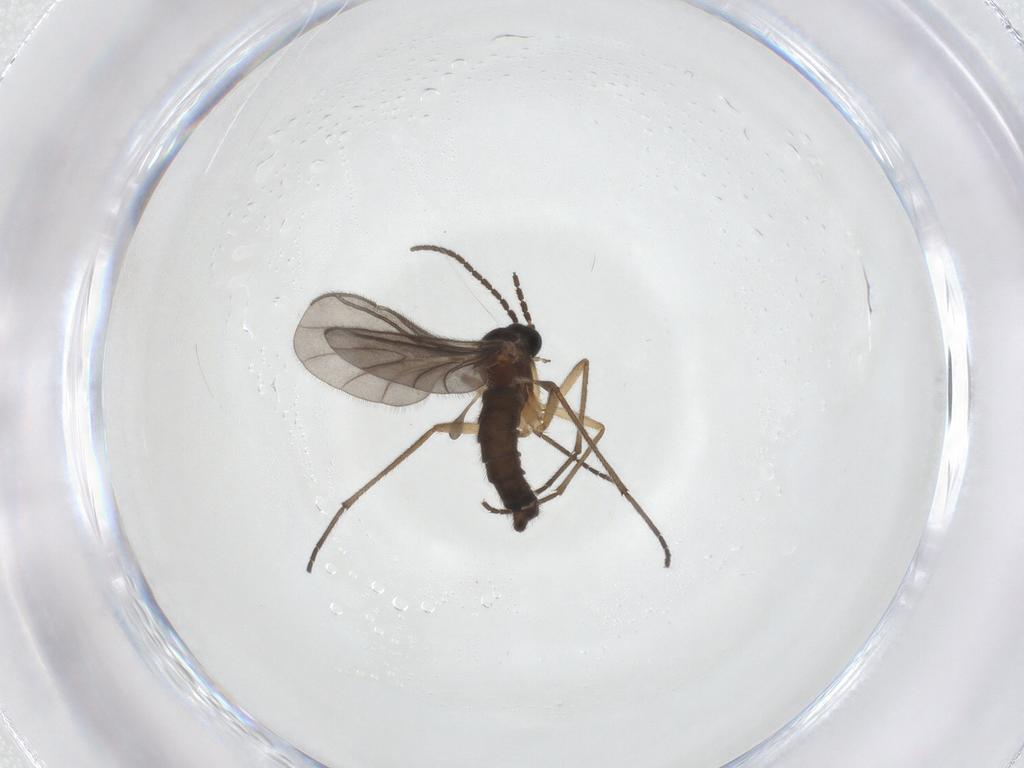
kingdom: Animalia
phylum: Arthropoda
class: Insecta
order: Diptera
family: Sciaridae
